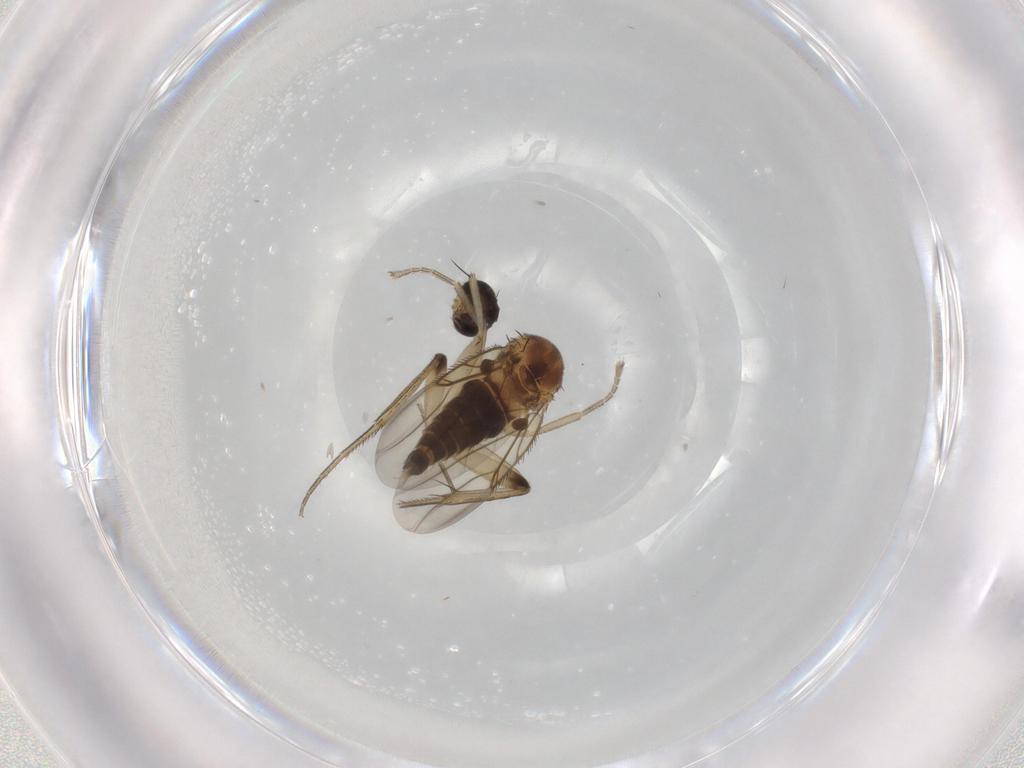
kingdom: Animalia
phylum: Arthropoda
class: Insecta
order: Diptera
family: Phoridae
